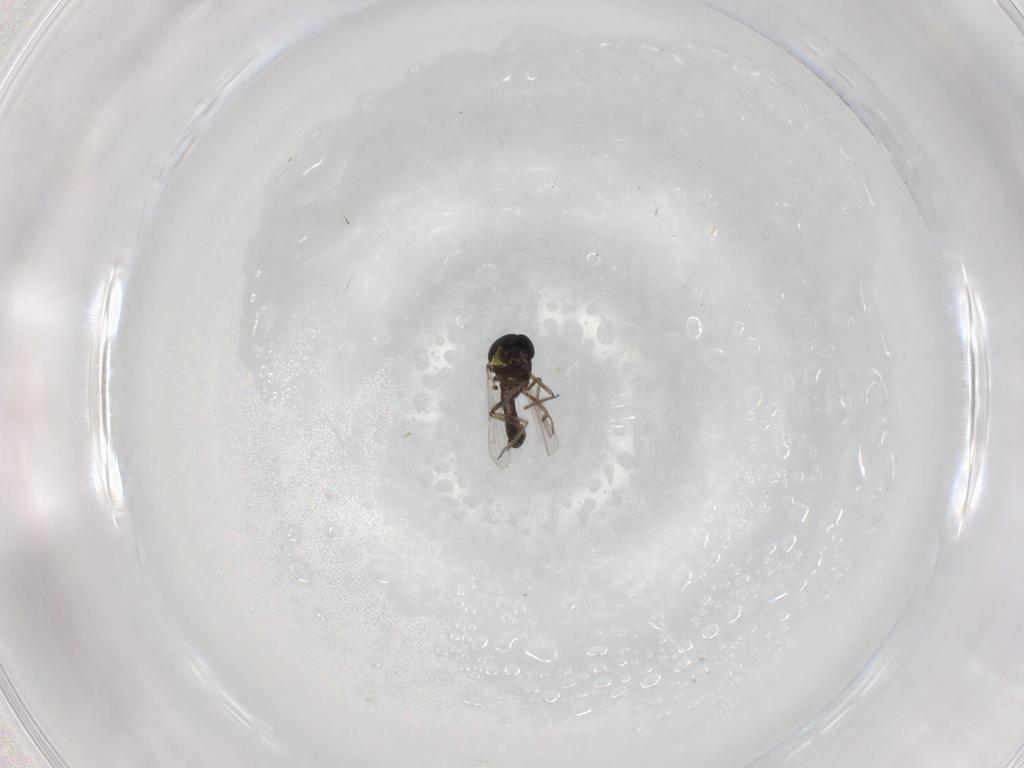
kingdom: Animalia
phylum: Arthropoda
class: Insecta
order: Diptera
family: Ceratopogonidae
